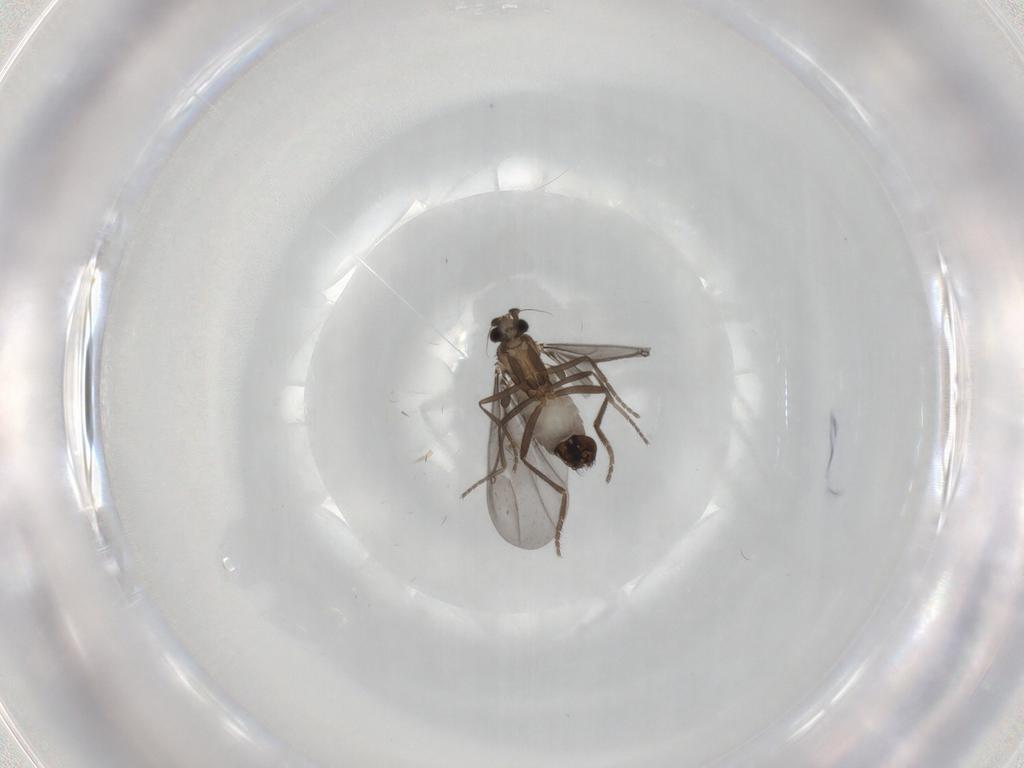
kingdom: Animalia
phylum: Arthropoda
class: Insecta
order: Diptera
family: Phoridae
